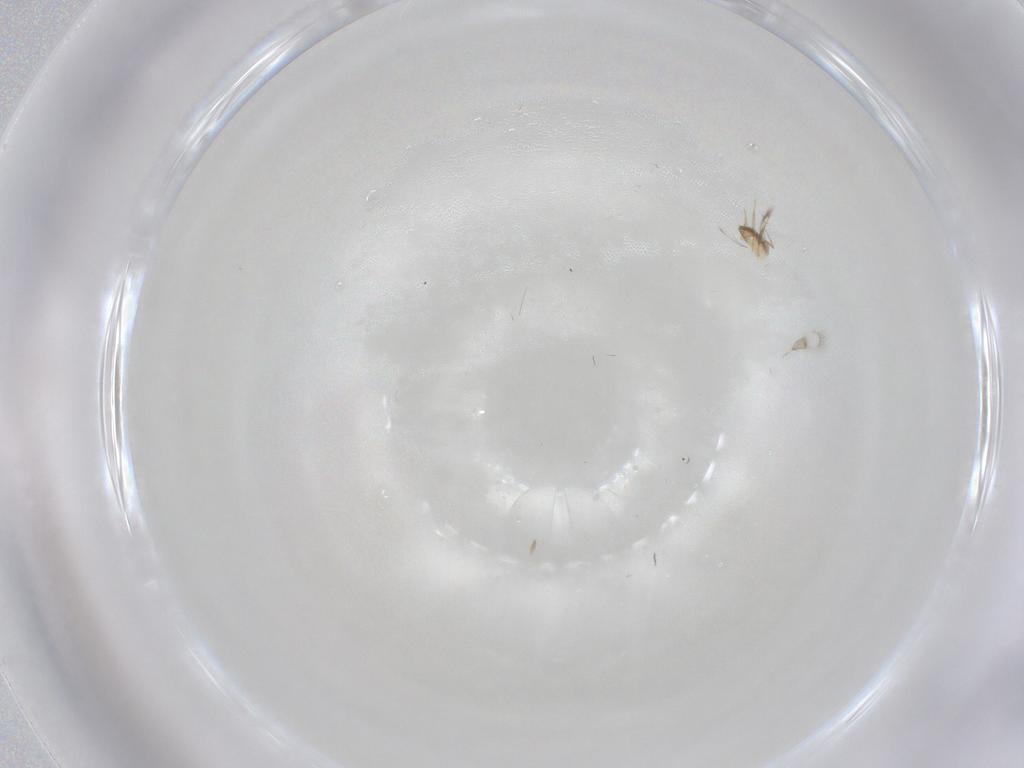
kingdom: Animalia
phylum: Arthropoda
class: Insecta
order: Hymenoptera
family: Trichogrammatidae
